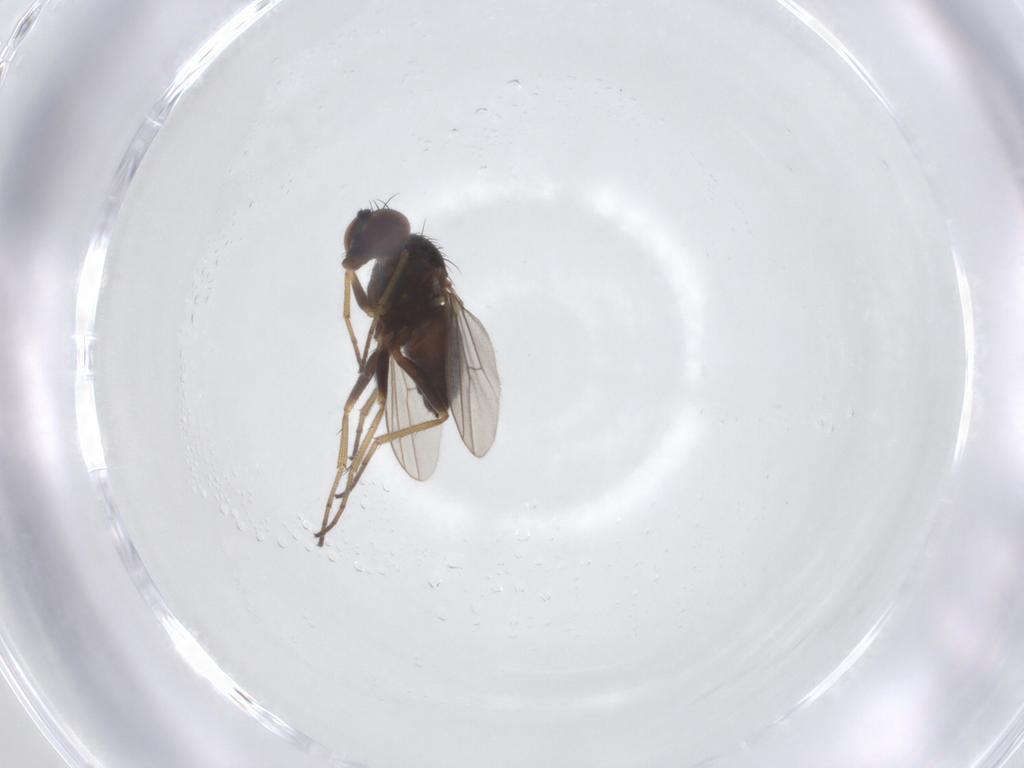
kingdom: Animalia
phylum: Arthropoda
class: Insecta
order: Diptera
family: Dolichopodidae
